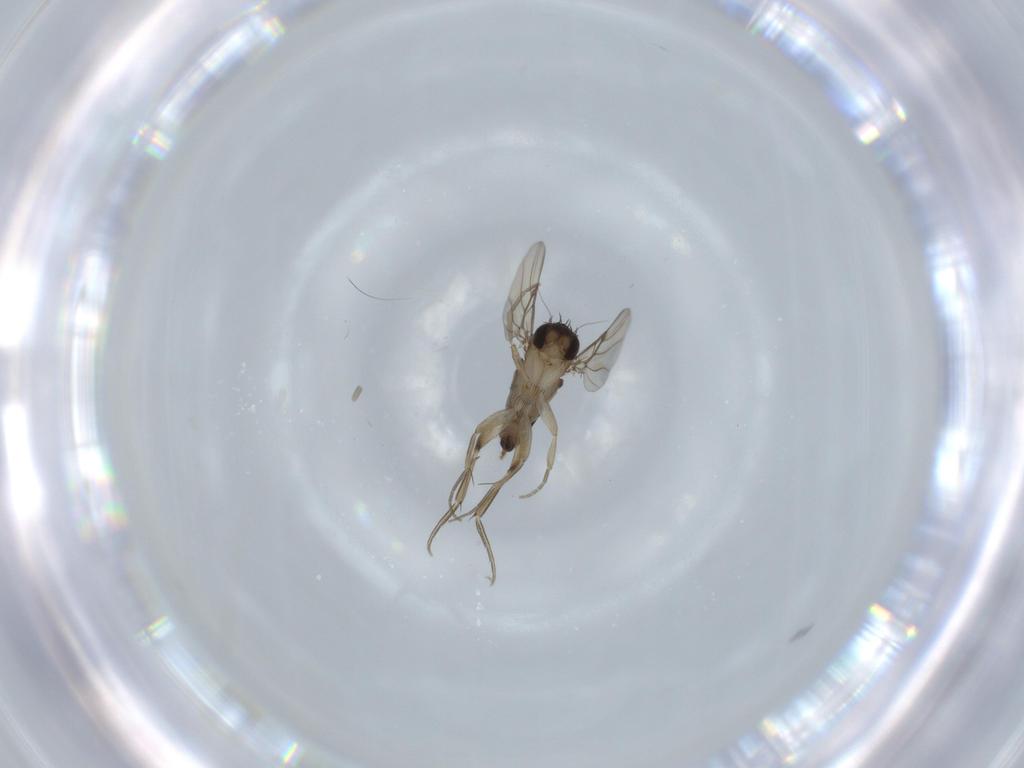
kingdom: Animalia
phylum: Arthropoda
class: Insecta
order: Diptera
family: Phoridae
